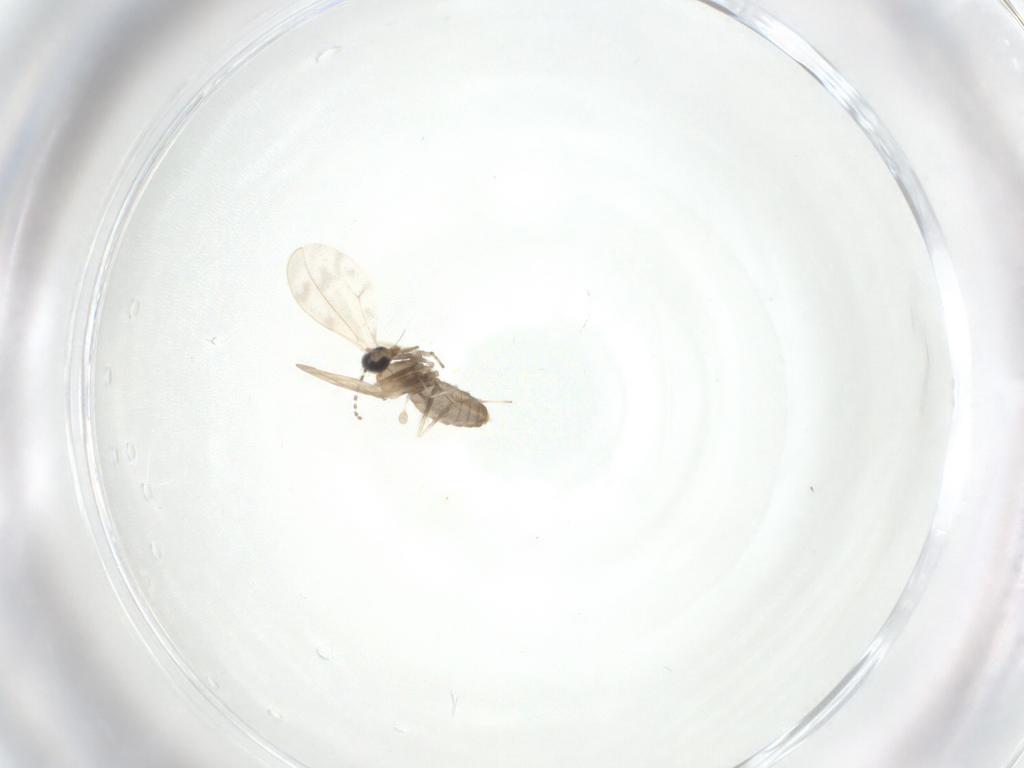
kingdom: Animalia
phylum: Arthropoda
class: Insecta
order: Diptera
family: Cecidomyiidae
